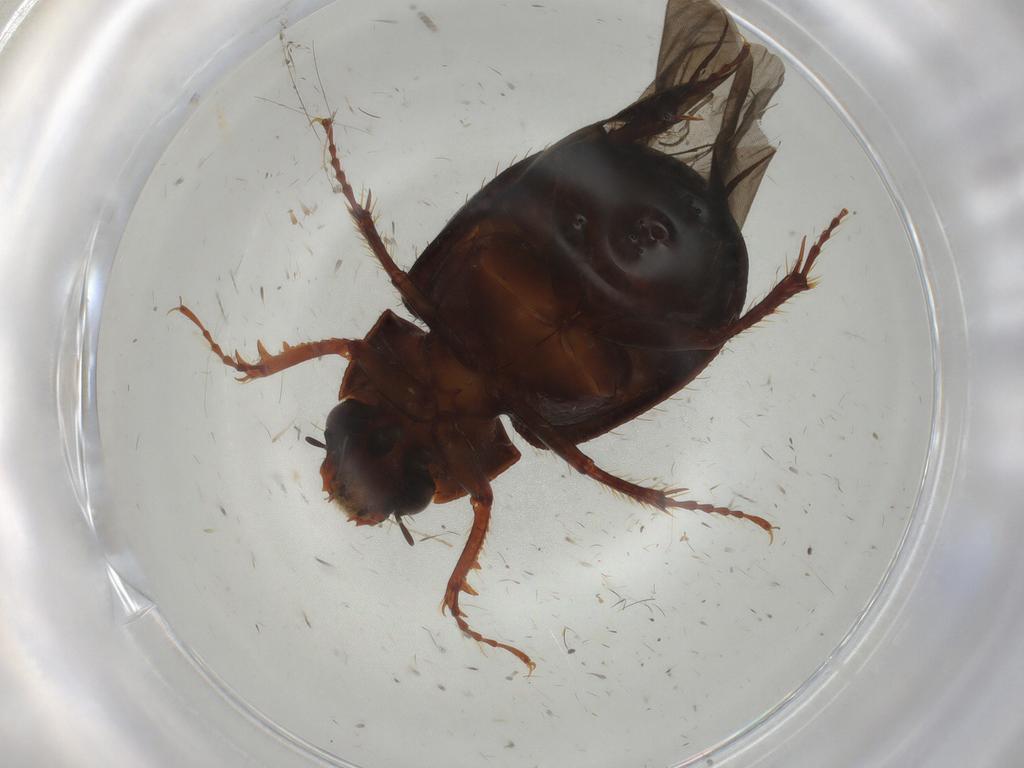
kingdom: Animalia
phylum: Arthropoda
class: Insecta
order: Coleoptera
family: Hybosoridae
